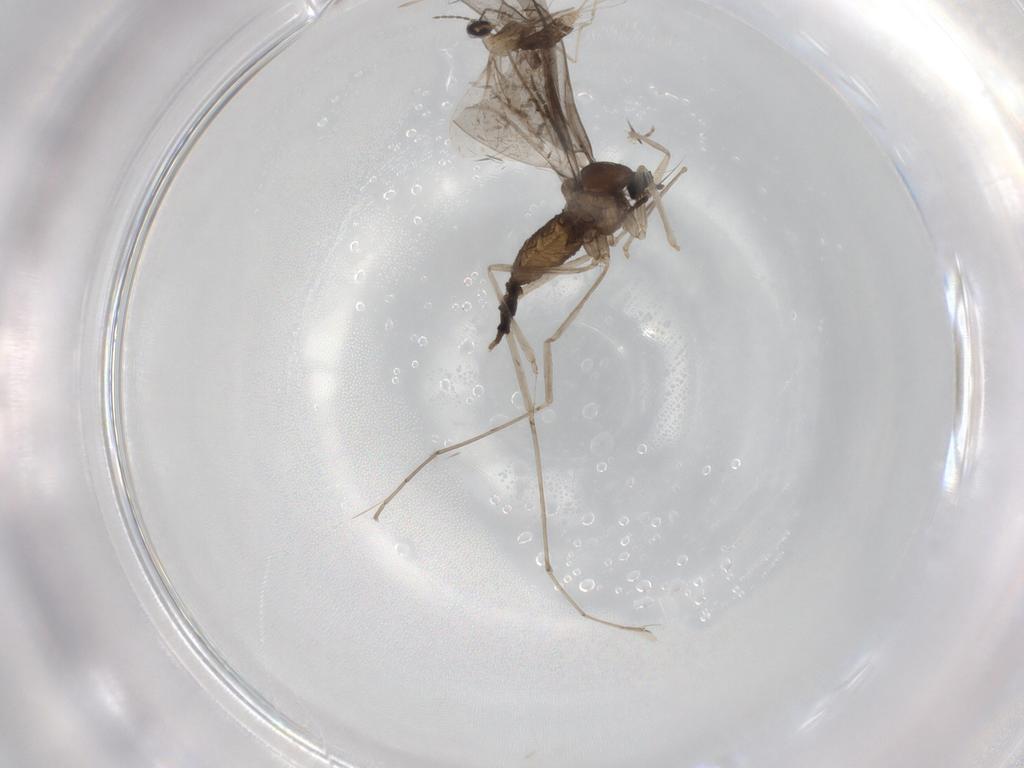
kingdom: Animalia
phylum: Arthropoda
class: Insecta
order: Diptera
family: Cecidomyiidae
